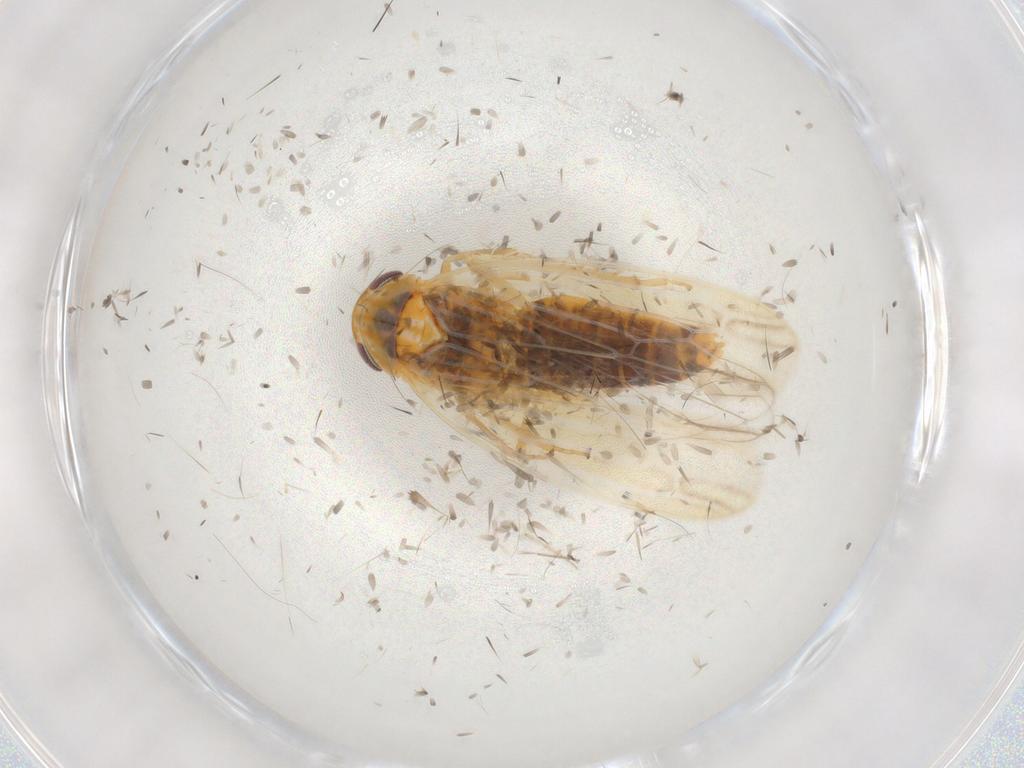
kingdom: Animalia
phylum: Arthropoda
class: Insecta
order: Hemiptera
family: Cicadellidae
